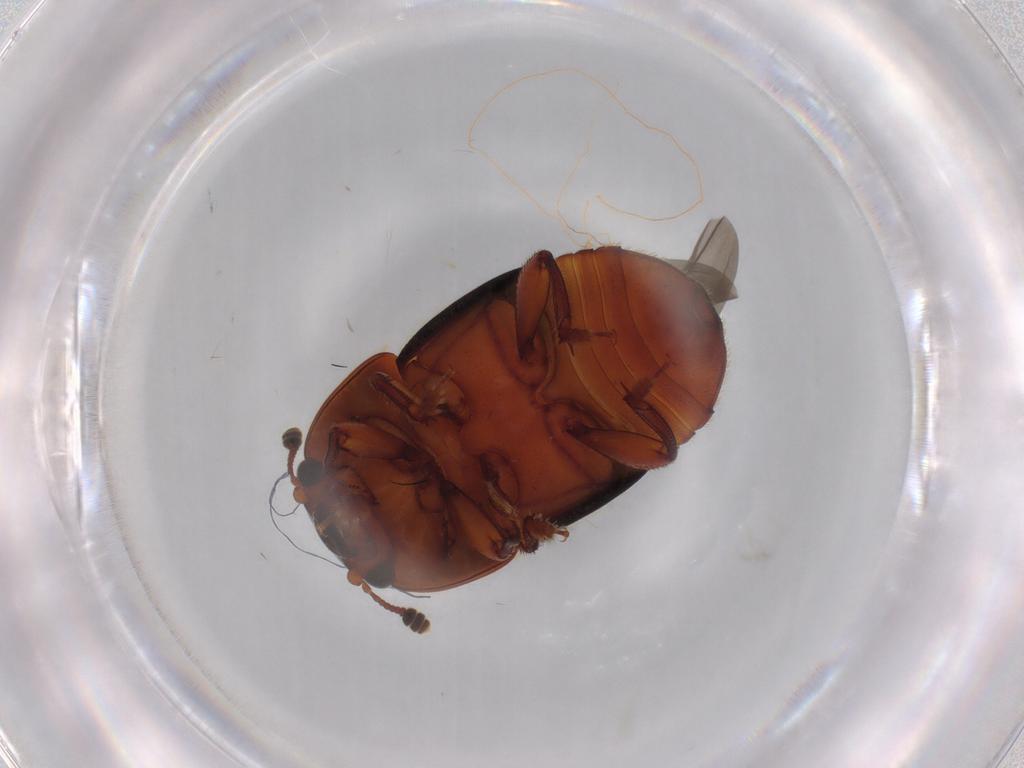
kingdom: Animalia
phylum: Arthropoda
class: Insecta
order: Coleoptera
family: Nitidulidae
